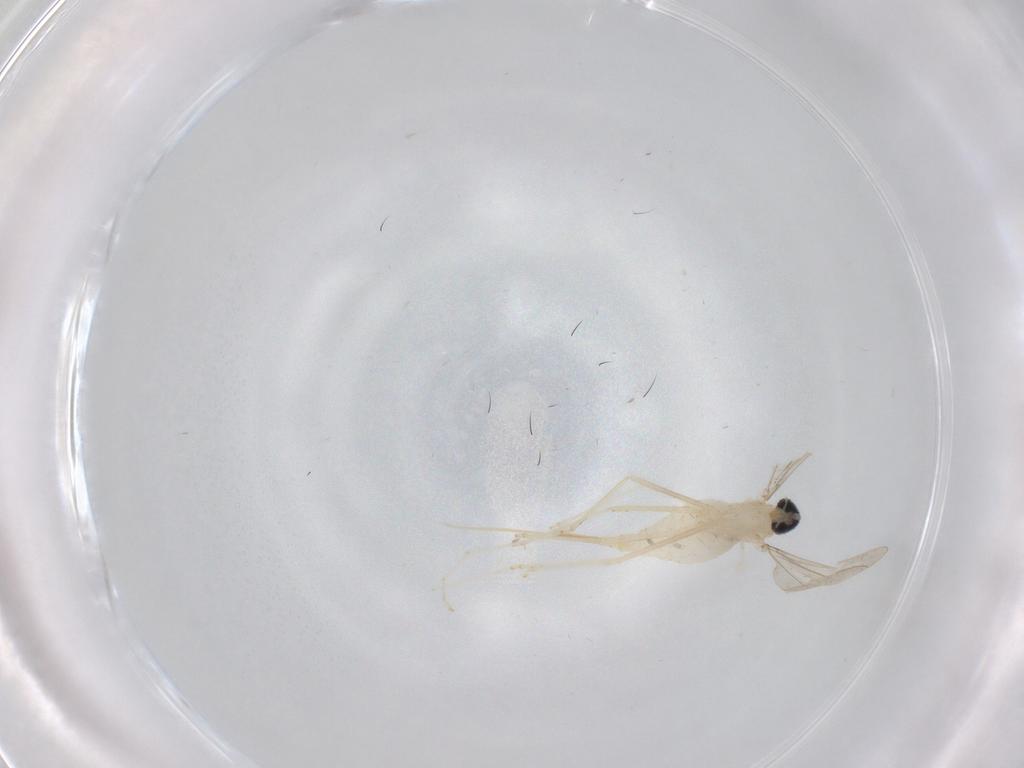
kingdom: Animalia
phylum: Arthropoda
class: Insecta
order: Diptera
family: Cecidomyiidae
